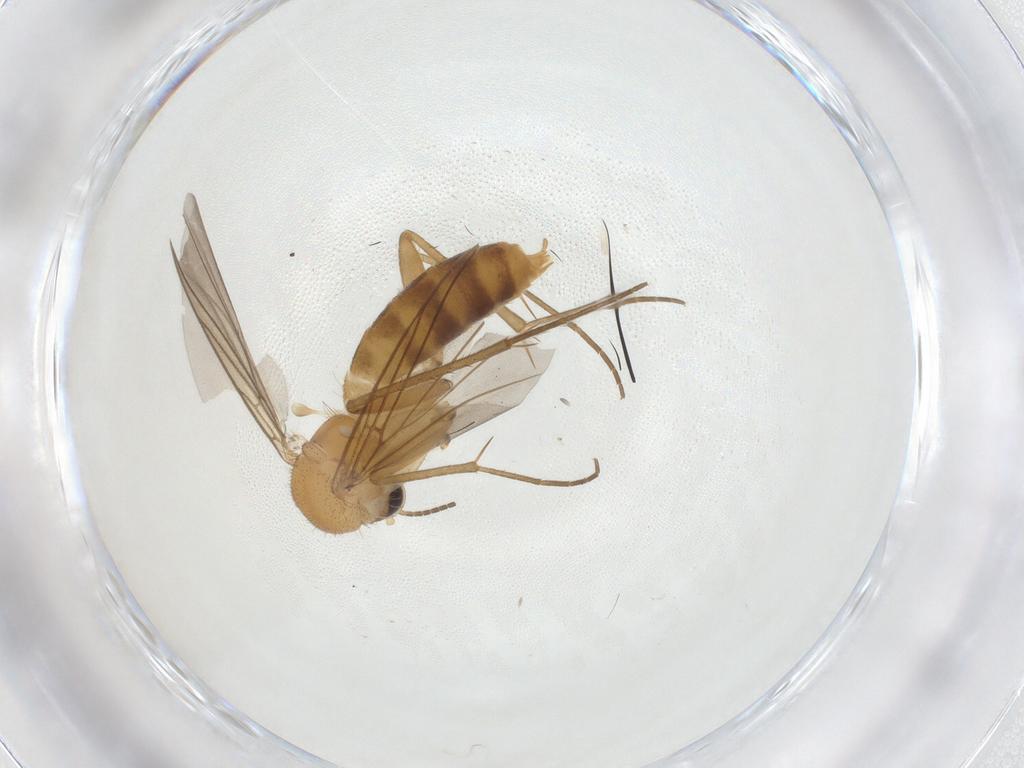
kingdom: Animalia
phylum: Arthropoda
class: Insecta
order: Diptera
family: Mycetophilidae
